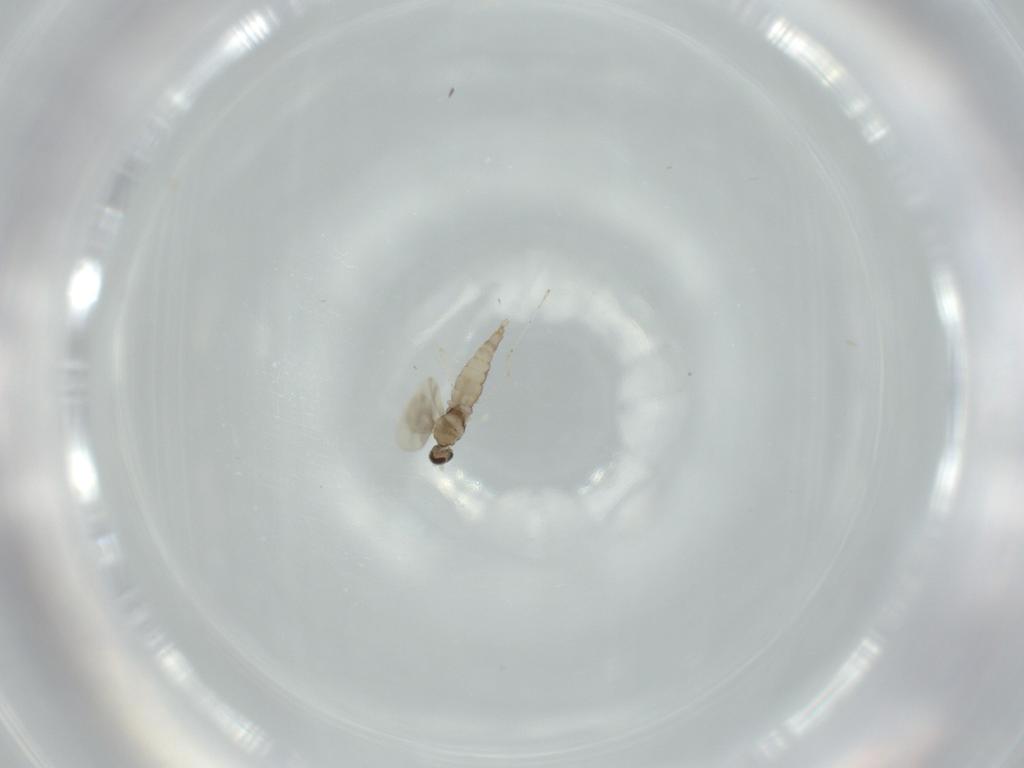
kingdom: Animalia
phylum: Arthropoda
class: Insecta
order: Diptera
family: Cecidomyiidae
